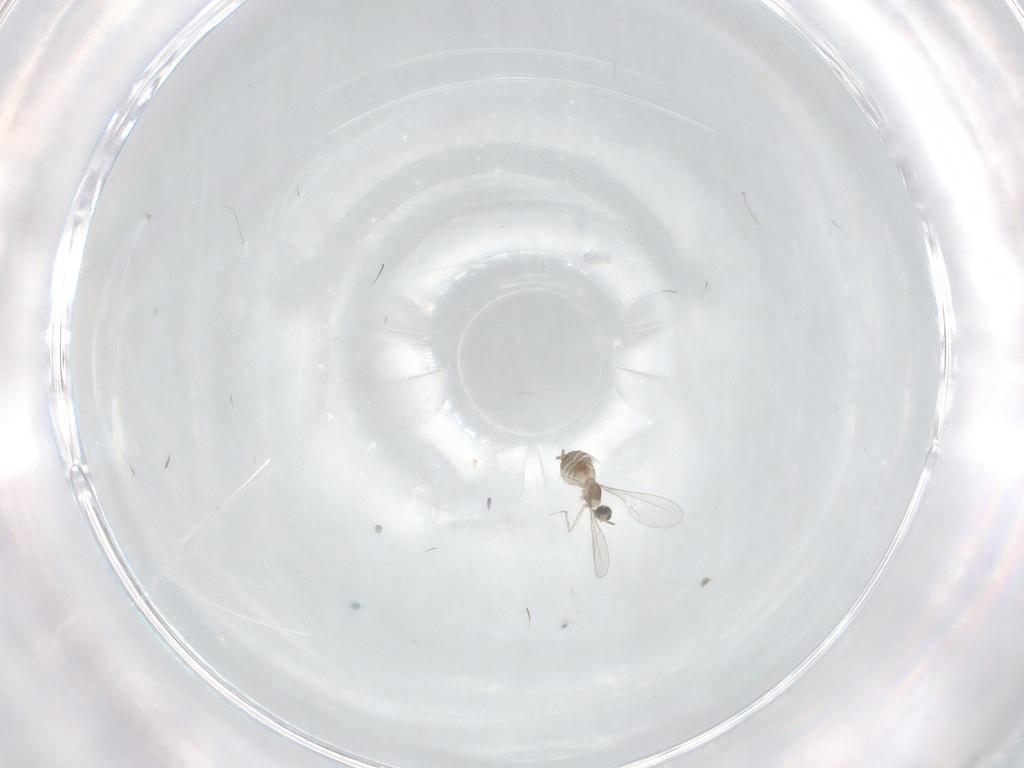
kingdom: Animalia
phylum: Arthropoda
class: Insecta
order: Diptera
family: Cecidomyiidae
